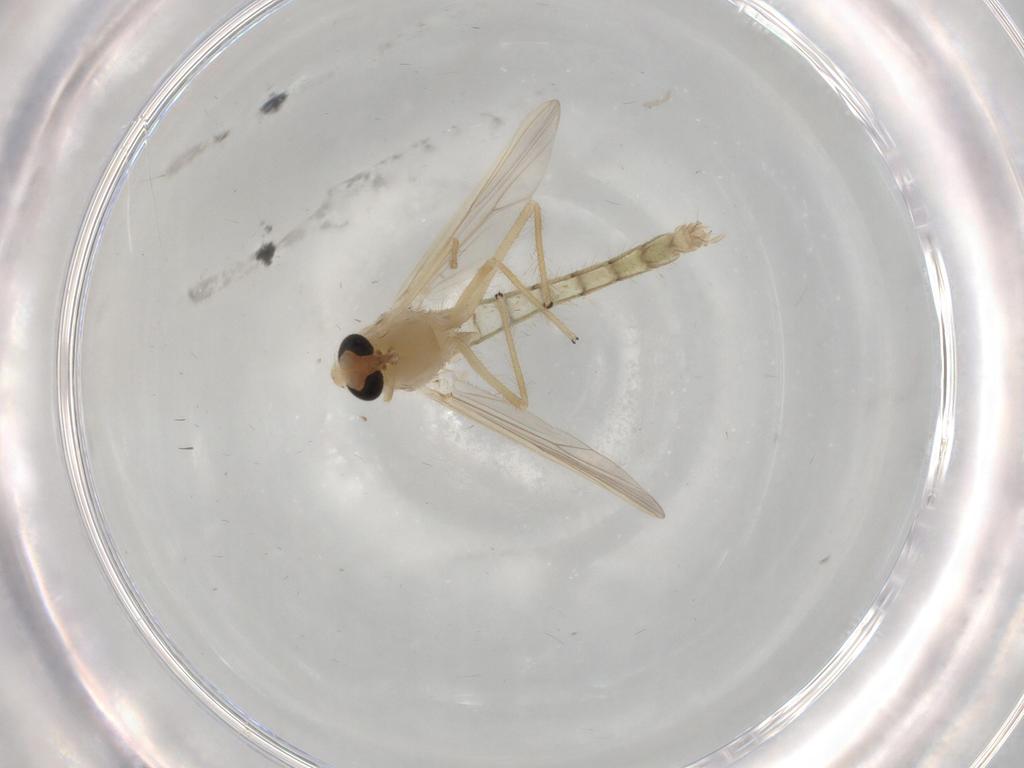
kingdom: Animalia
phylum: Arthropoda
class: Insecta
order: Diptera
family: Chironomidae
